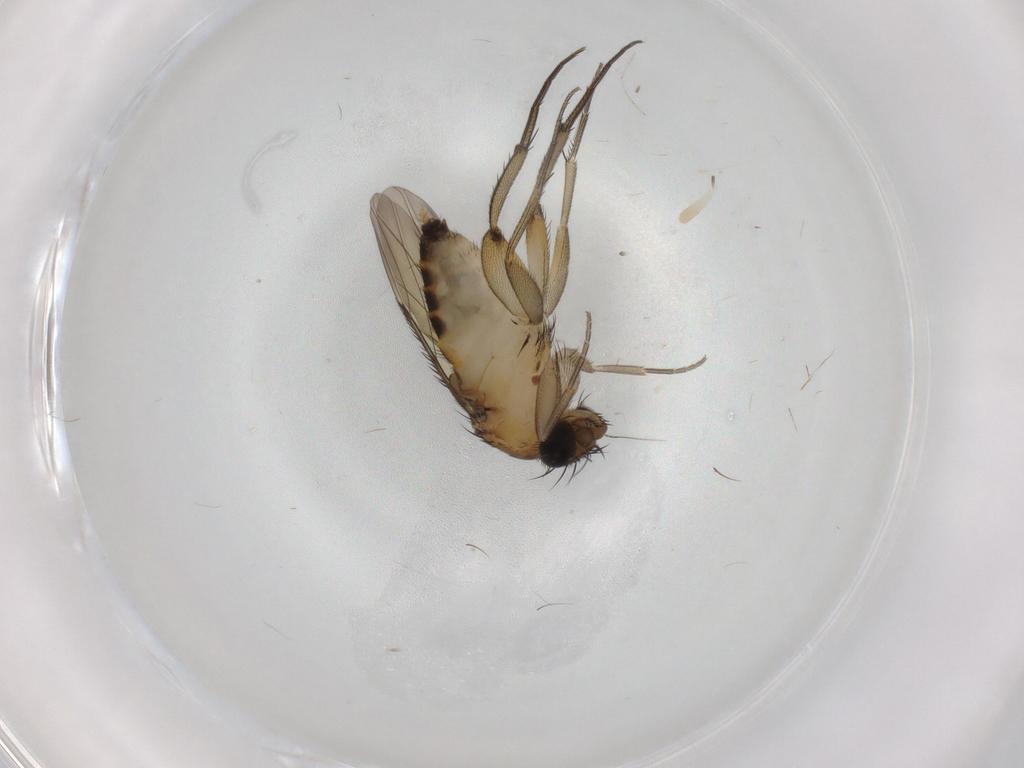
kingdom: Animalia
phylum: Arthropoda
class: Insecta
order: Diptera
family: Phoridae
